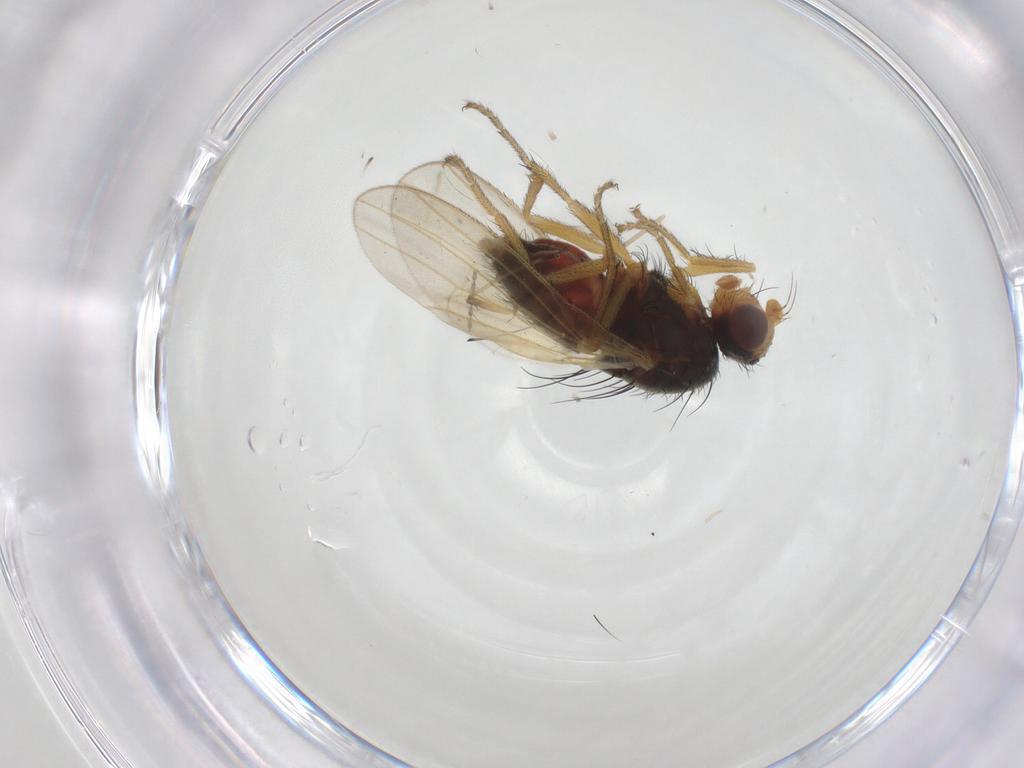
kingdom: Animalia
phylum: Arthropoda
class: Insecta
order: Diptera
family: Heleomyzidae
